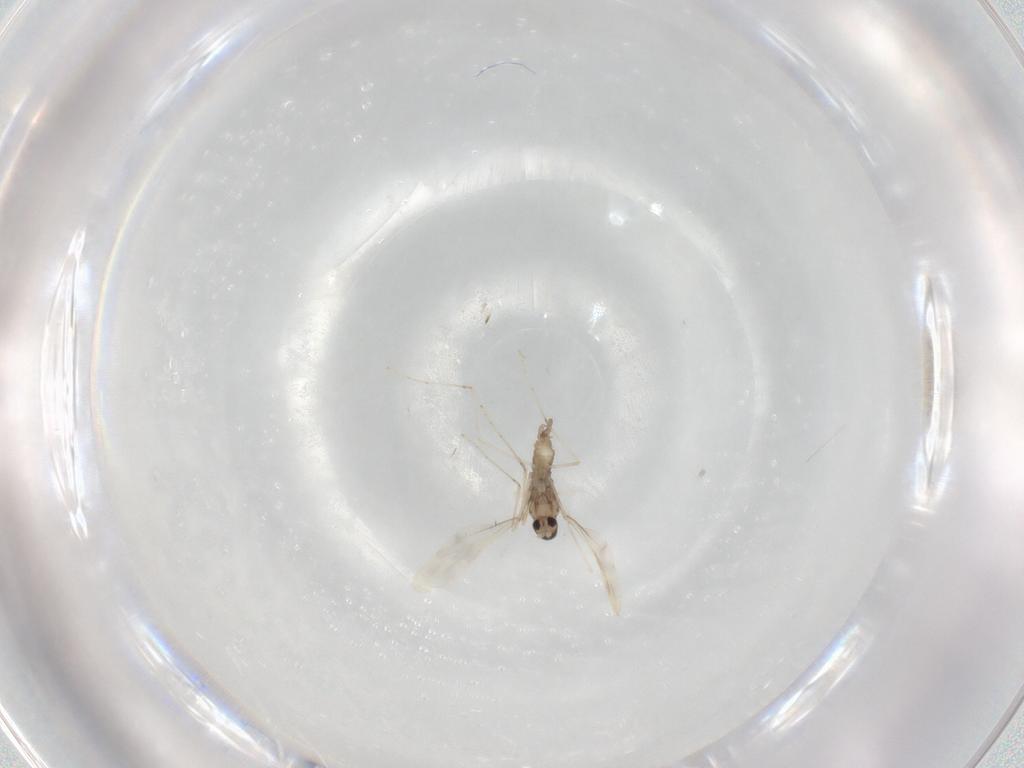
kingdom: Animalia
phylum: Arthropoda
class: Insecta
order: Diptera
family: Cecidomyiidae
